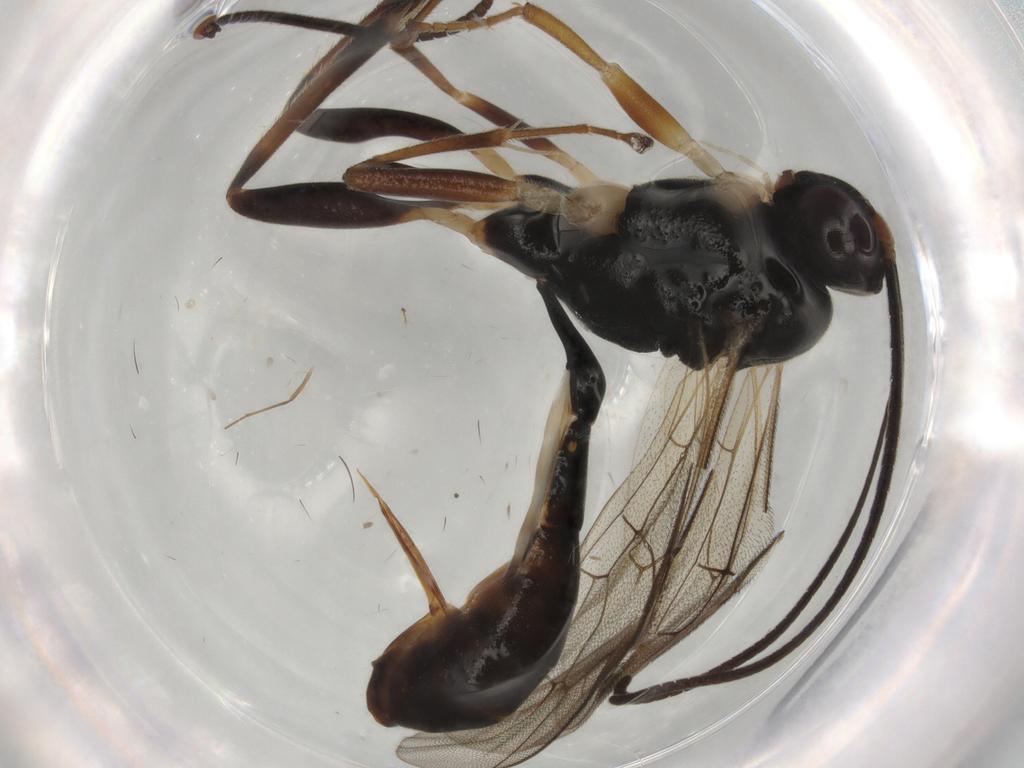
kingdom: Animalia
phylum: Arthropoda
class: Insecta
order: Hymenoptera
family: Ichneumonidae
